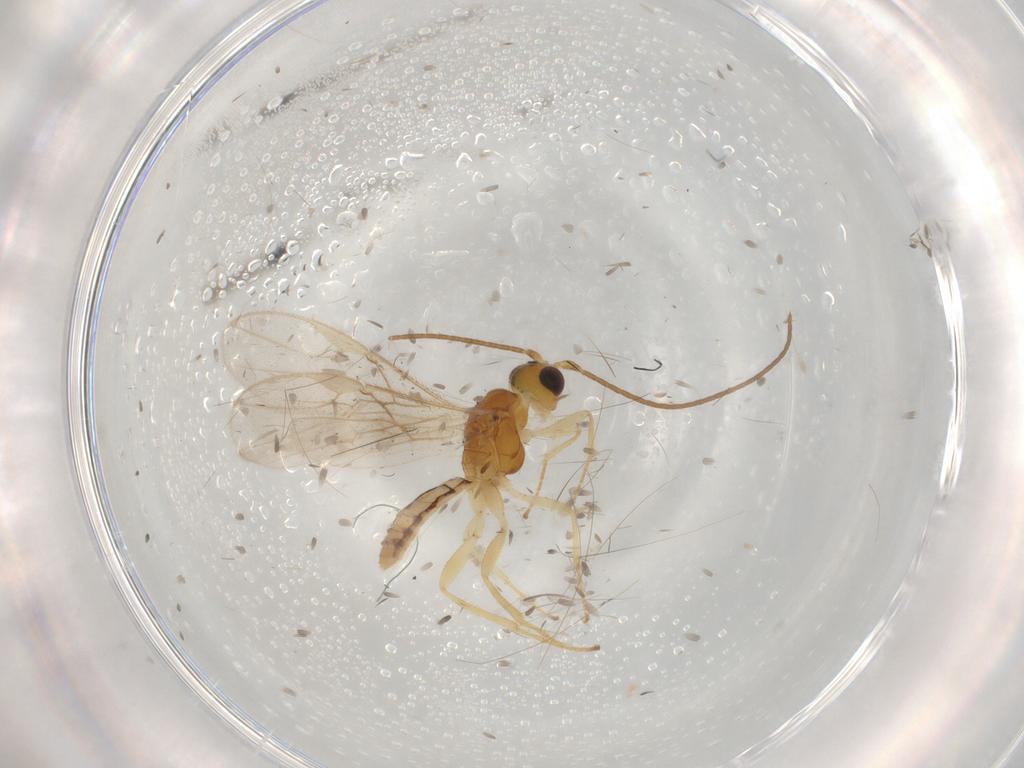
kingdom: Animalia
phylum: Arthropoda
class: Insecta
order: Hymenoptera
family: Braconidae
